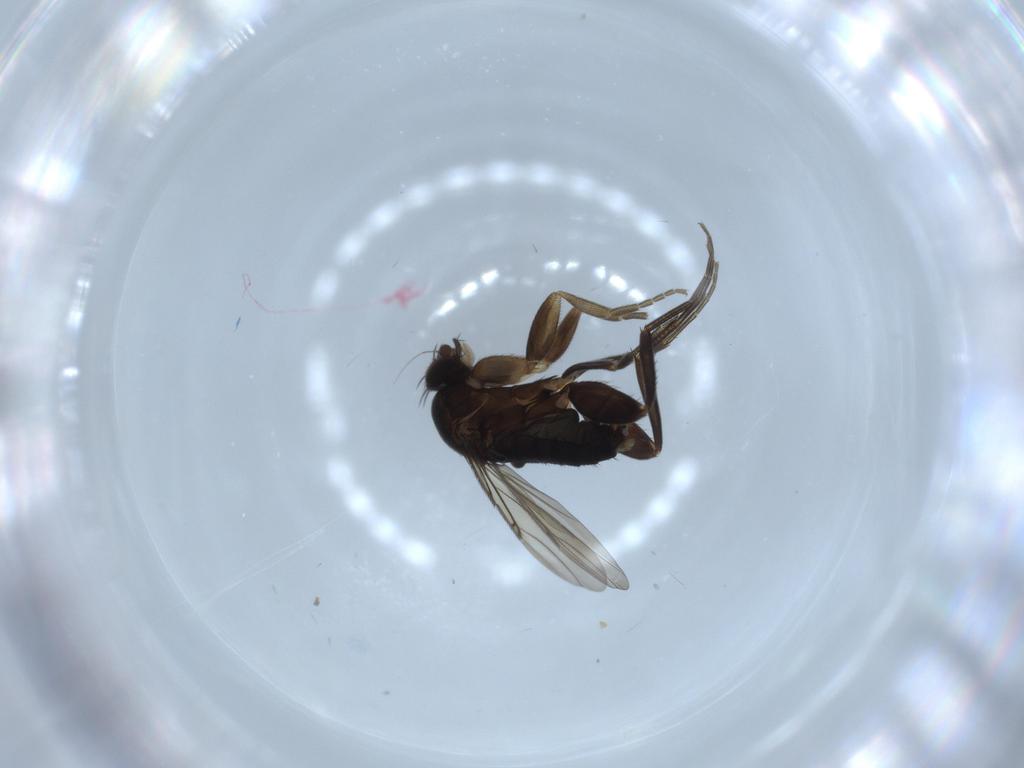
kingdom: Animalia
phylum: Arthropoda
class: Insecta
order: Diptera
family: Phoridae
